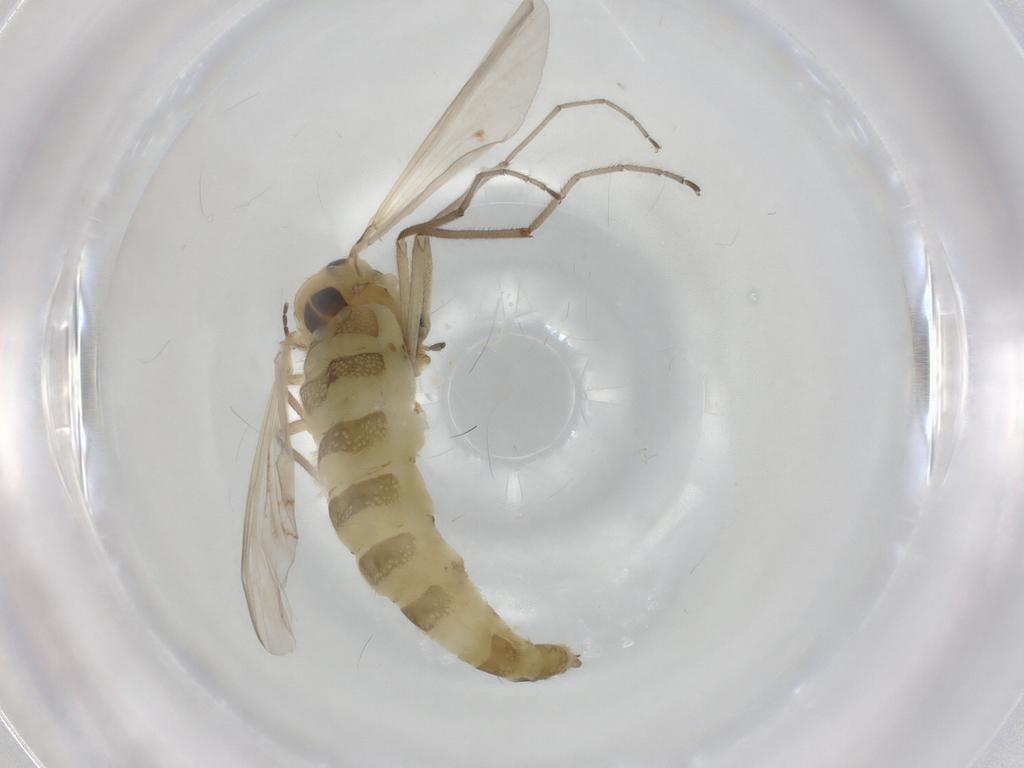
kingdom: Animalia
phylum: Arthropoda
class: Insecta
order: Diptera
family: Muscidae
